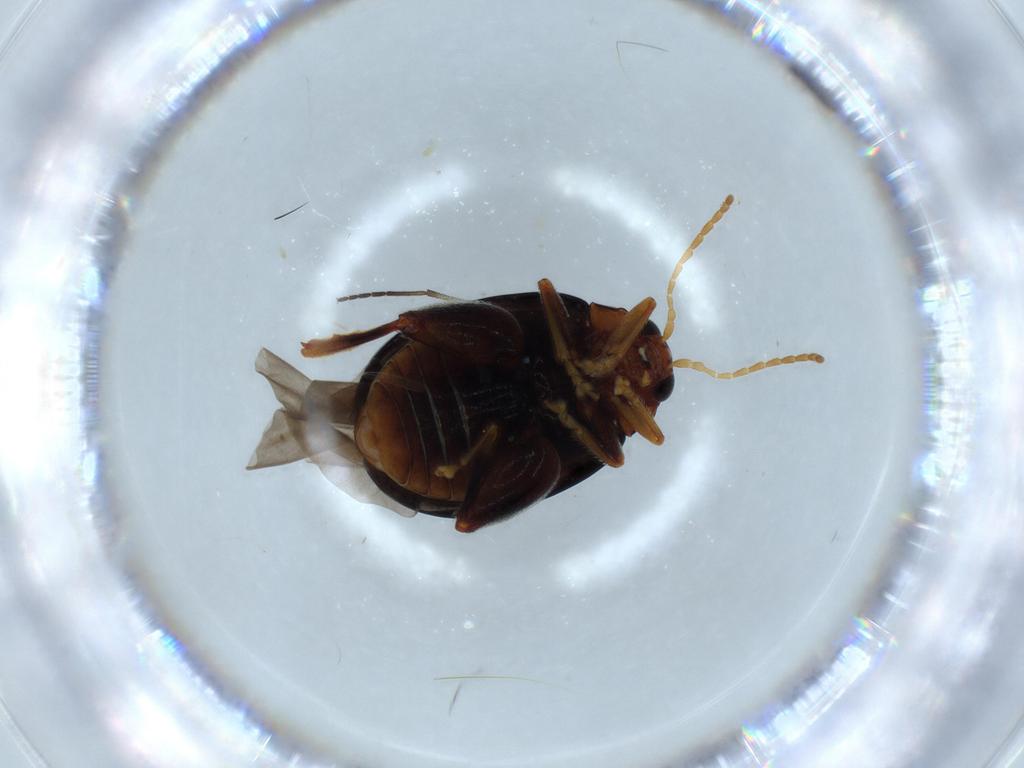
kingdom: Animalia
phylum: Arthropoda
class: Insecta
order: Coleoptera
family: Chrysomelidae
